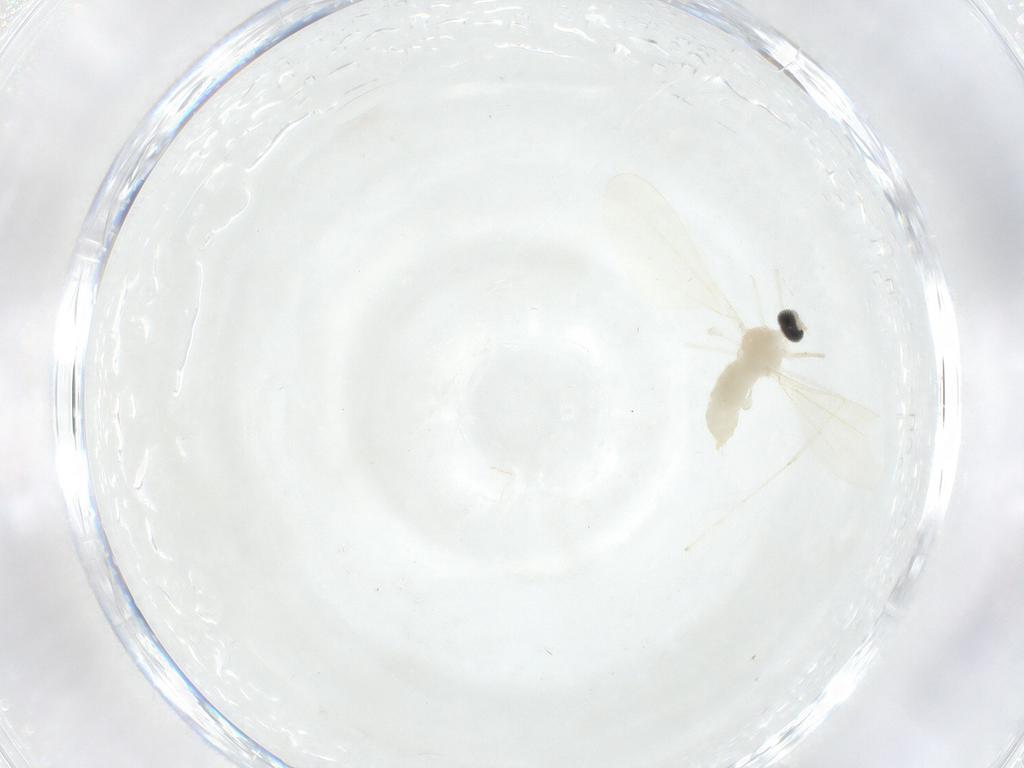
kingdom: Animalia
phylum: Arthropoda
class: Insecta
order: Diptera
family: Cecidomyiidae
